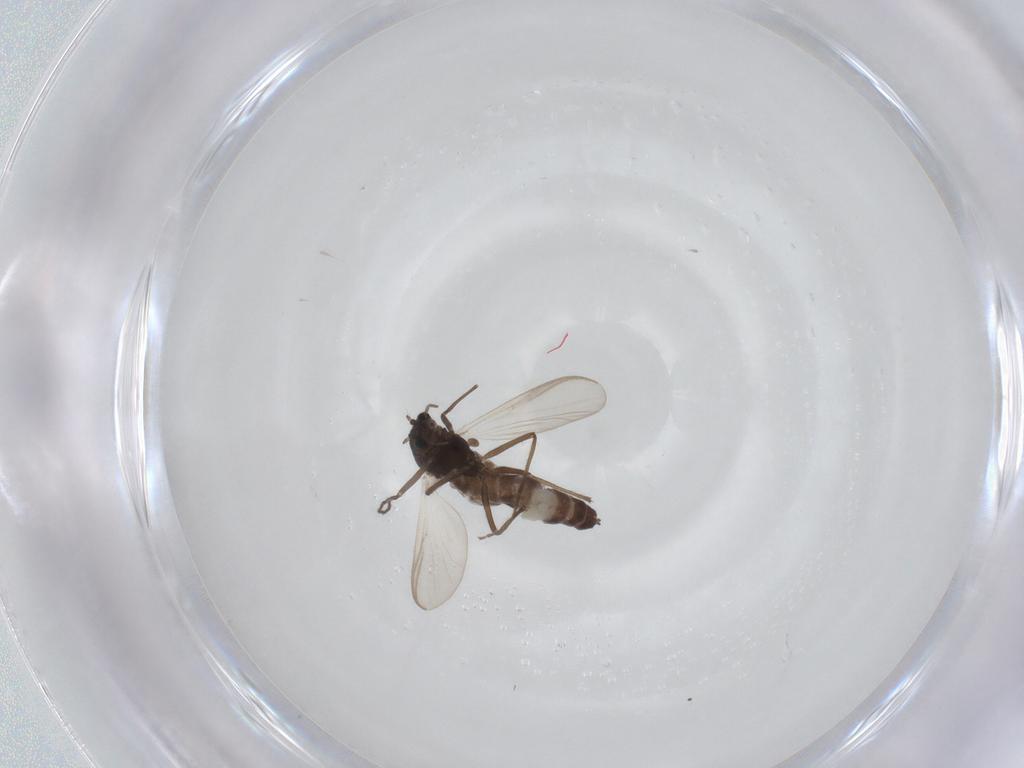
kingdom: Animalia
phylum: Arthropoda
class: Insecta
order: Diptera
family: Chironomidae
